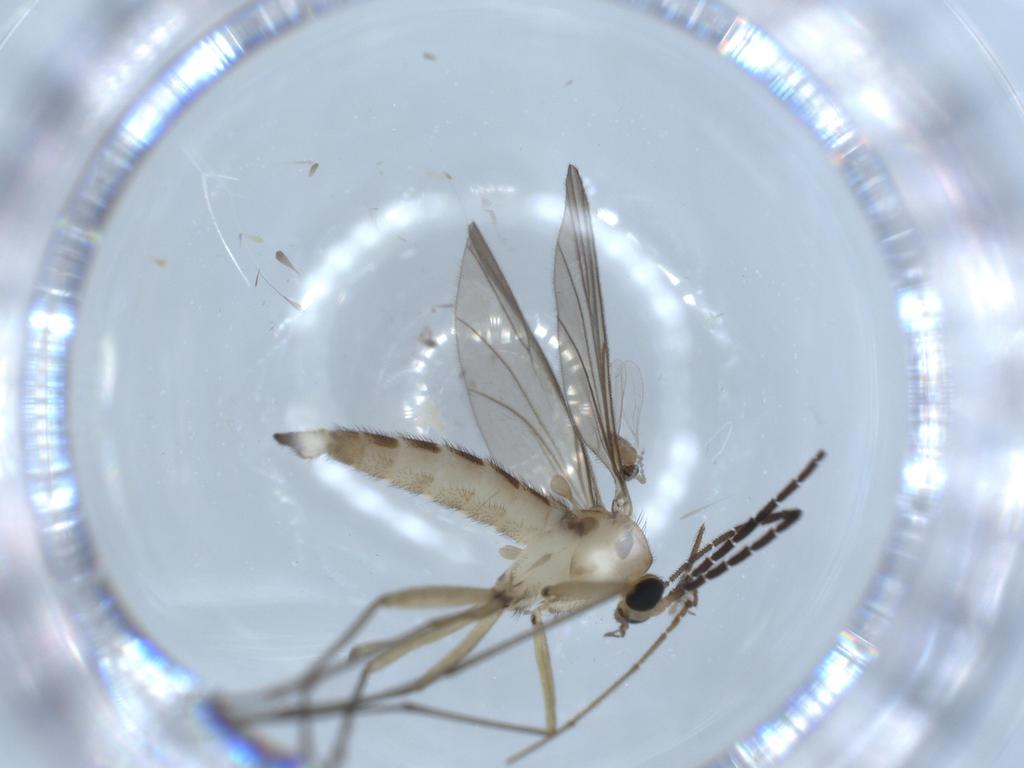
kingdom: Animalia
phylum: Arthropoda
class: Insecta
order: Diptera
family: Sciaridae
